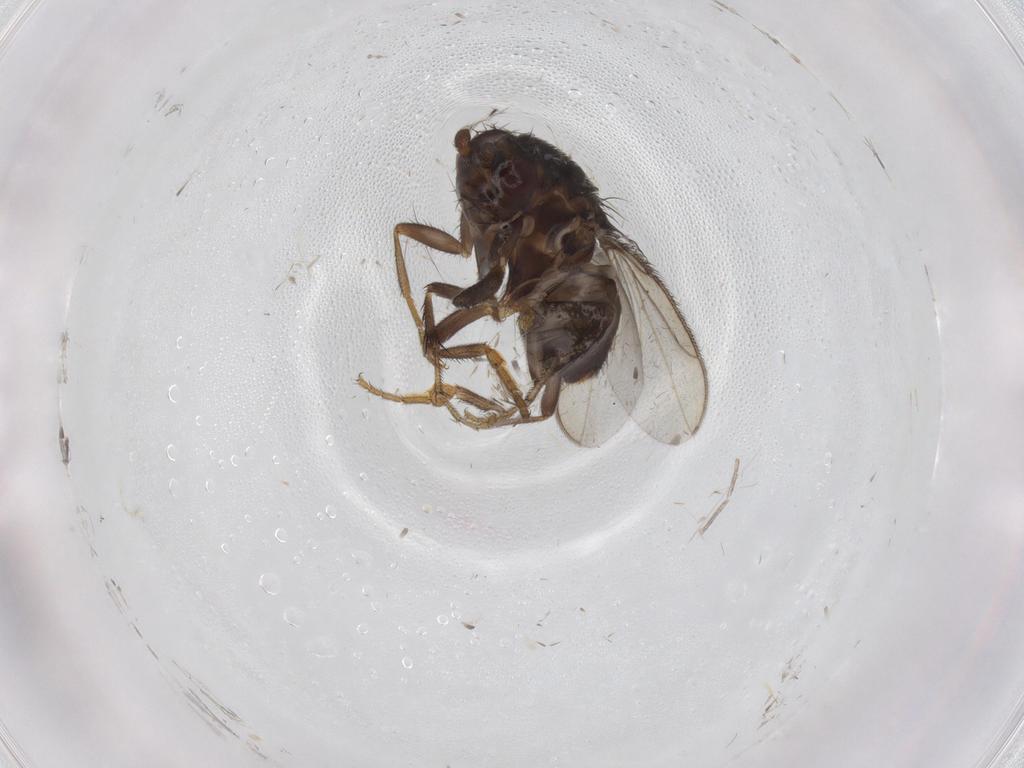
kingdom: Animalia
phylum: Arthropoda
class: Insecta
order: Diptera
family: Sphaeroceridae
